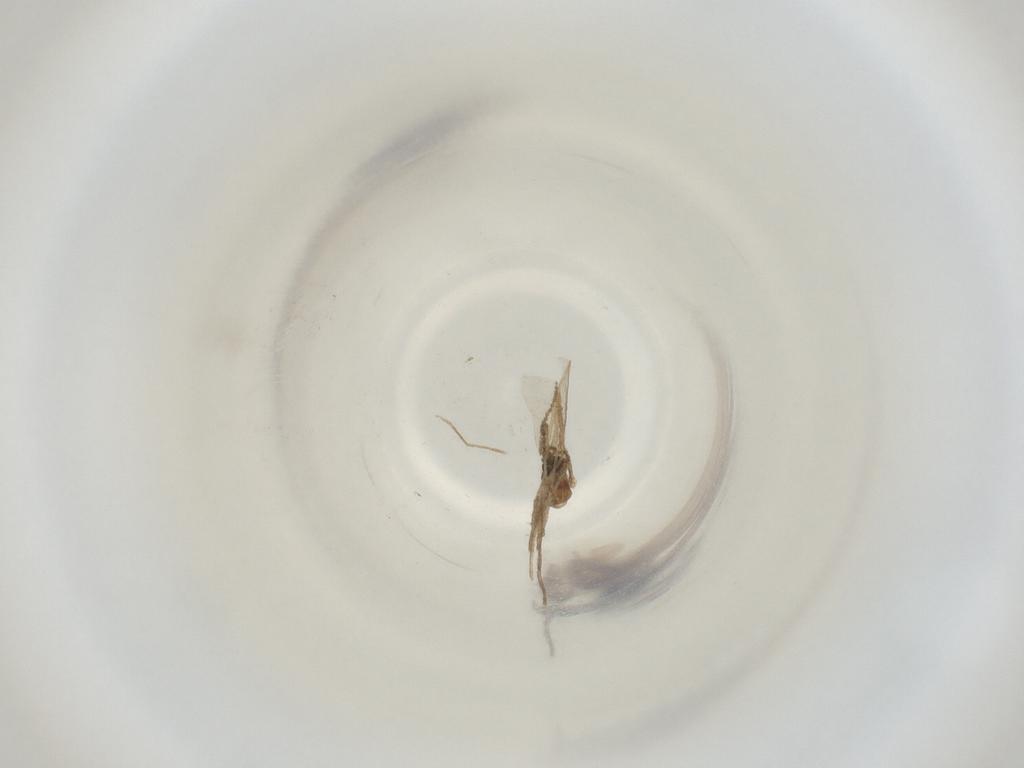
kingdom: Animalia
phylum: Arthropoda
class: Insecta
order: Diptera
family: Cecidomyiidae
